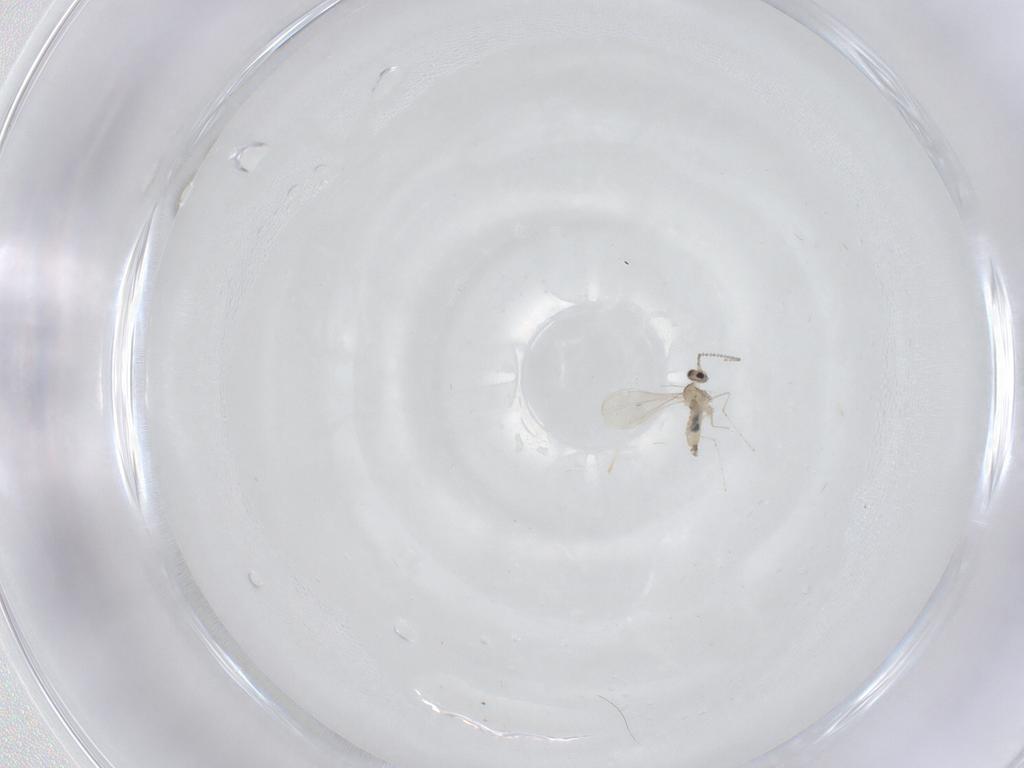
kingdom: Animalia
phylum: Arthropoda
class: Insecta
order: Diptera
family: Cecidomyiidae
